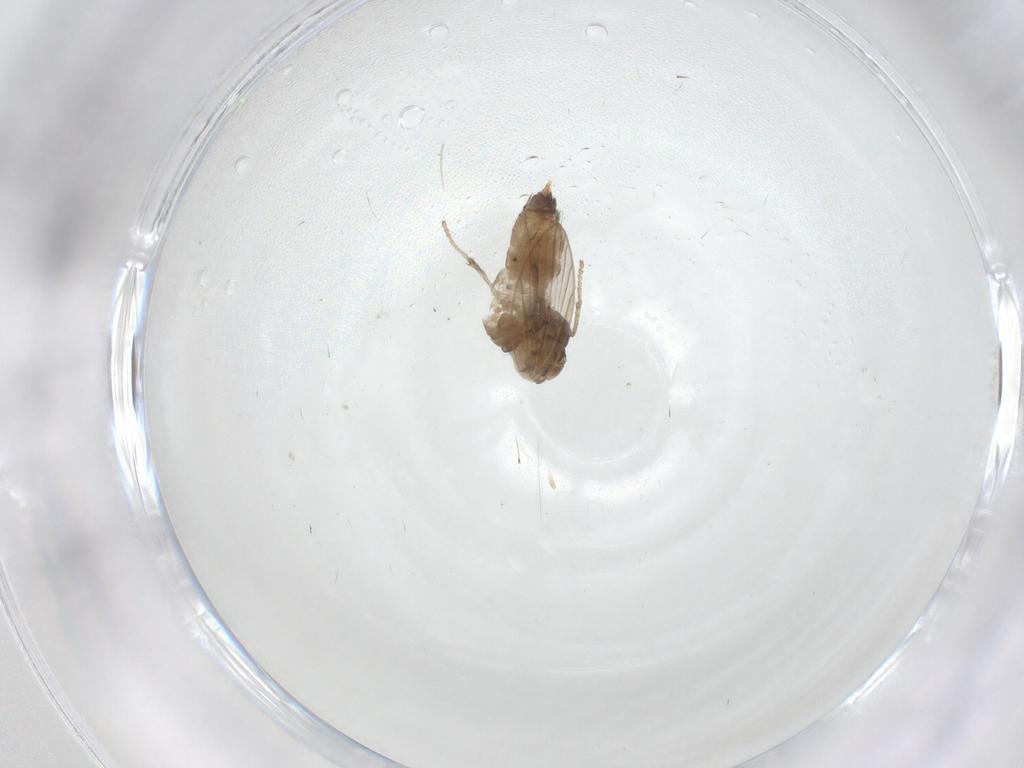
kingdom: Animalia
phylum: Arthropoda
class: Insecta
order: Diptera
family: Psychodidae
